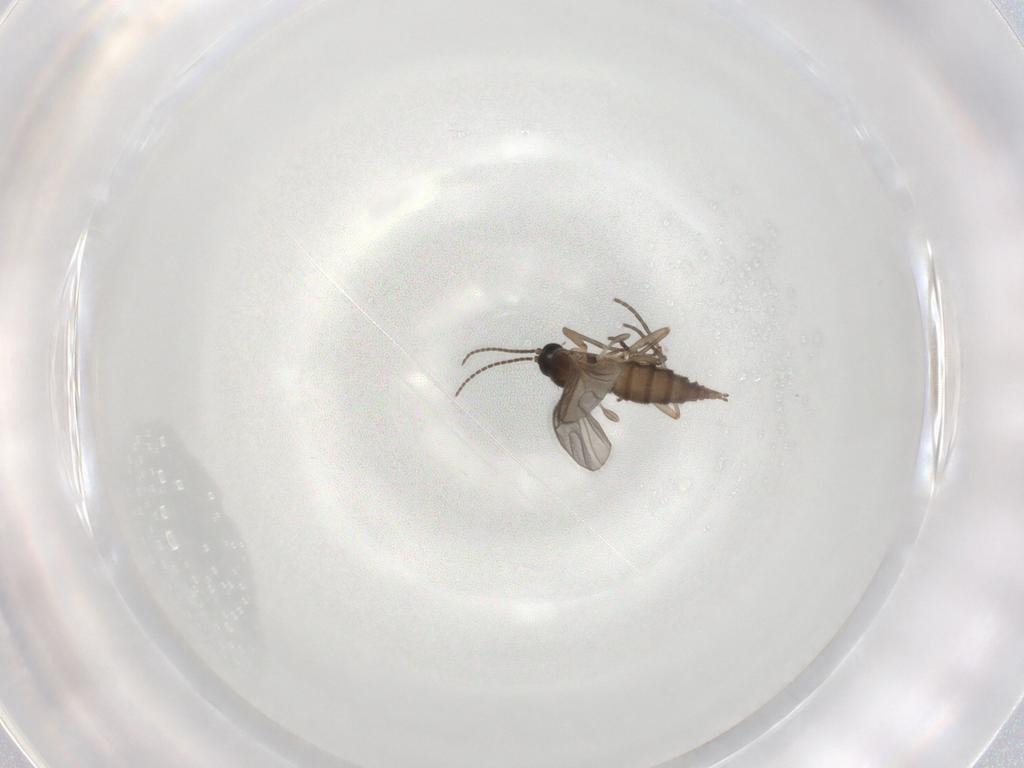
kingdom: Animalia
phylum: Arthropoda
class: Insecta
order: Diptera
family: Sciaridae
